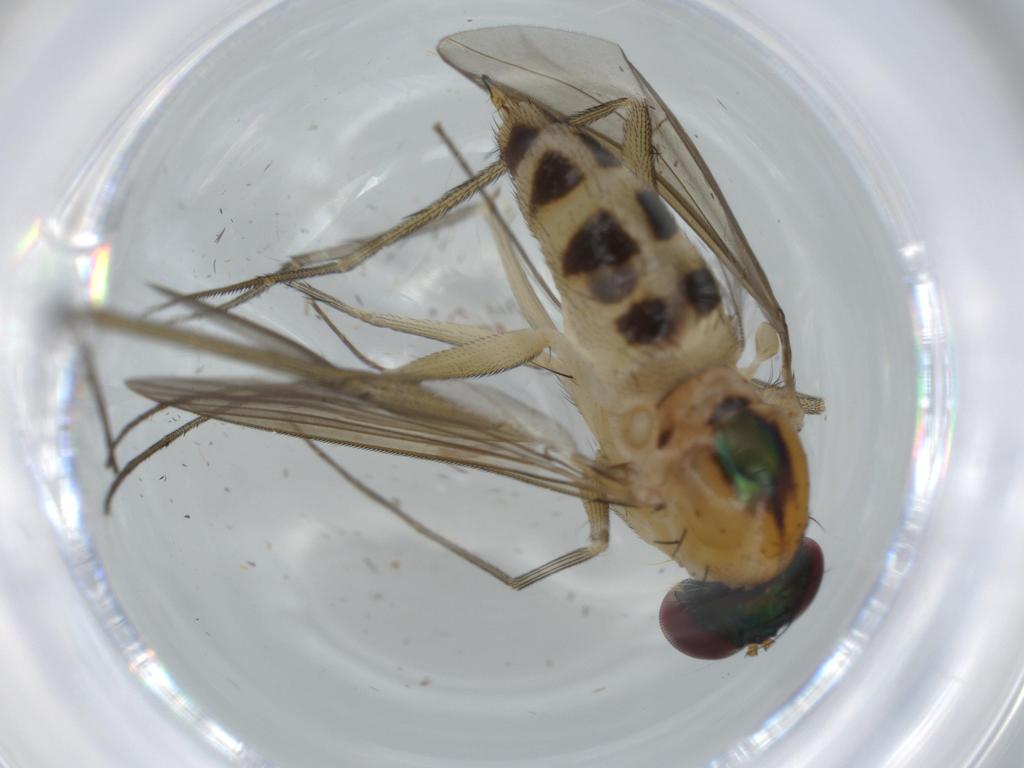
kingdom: Animalia
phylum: Arthropoda
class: Insecta
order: Diptera
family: Dolichopodidae
